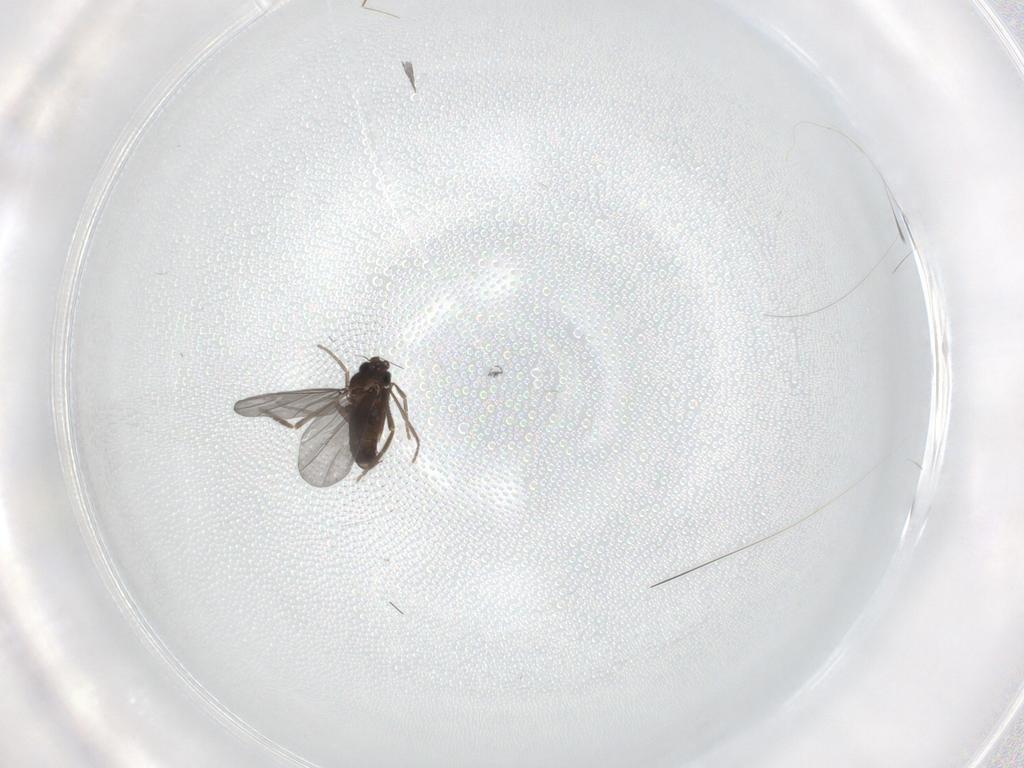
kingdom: Animalia
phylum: Arthropoda
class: Insecta
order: Diptera
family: Phoridae
